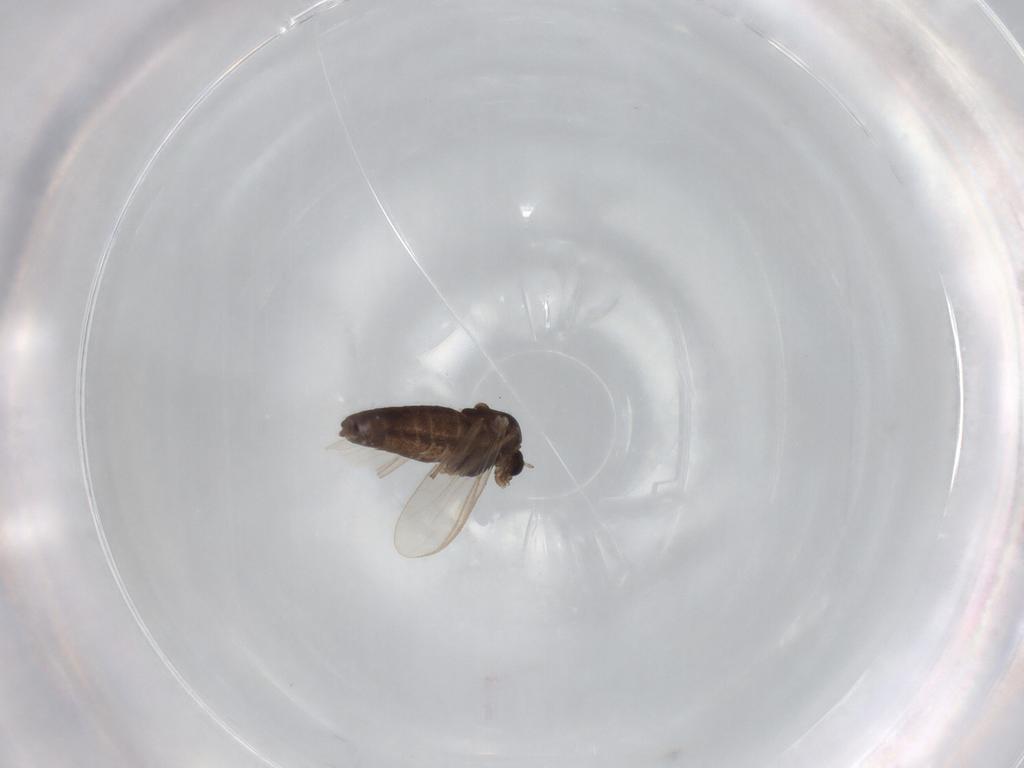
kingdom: Animalia
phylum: Arthropoda
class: Insecta
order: Diptera
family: Chironomidae
